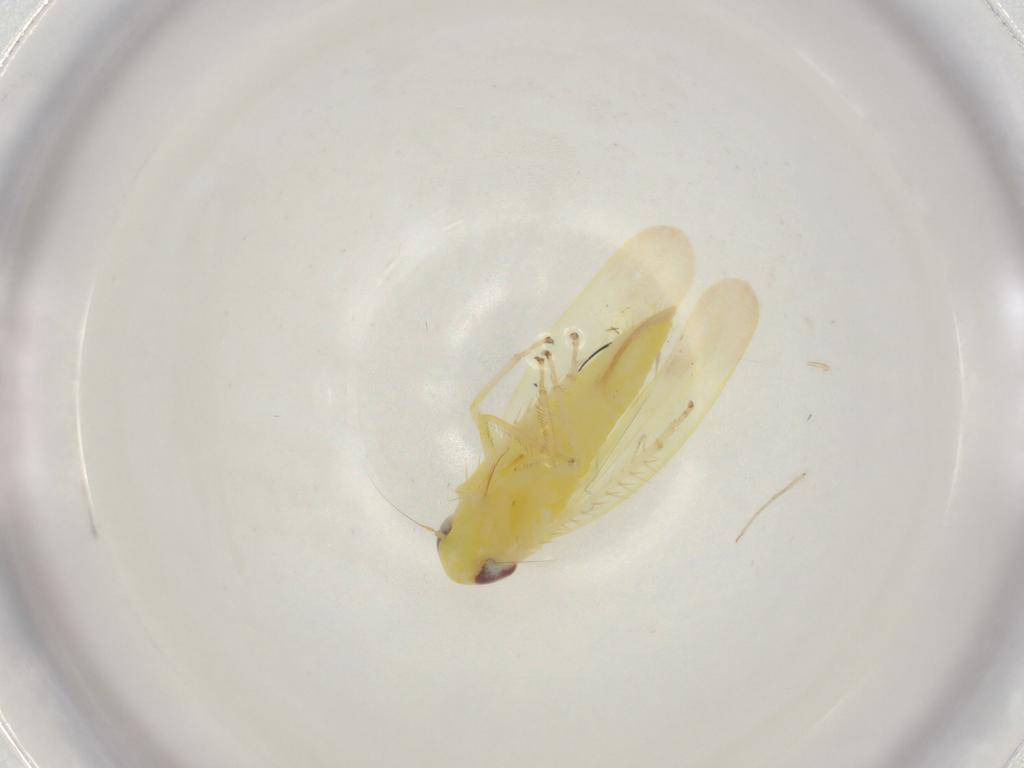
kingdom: Animalia
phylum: Arthropoda
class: Insecta
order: Hemiptera
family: Cicadellidae
